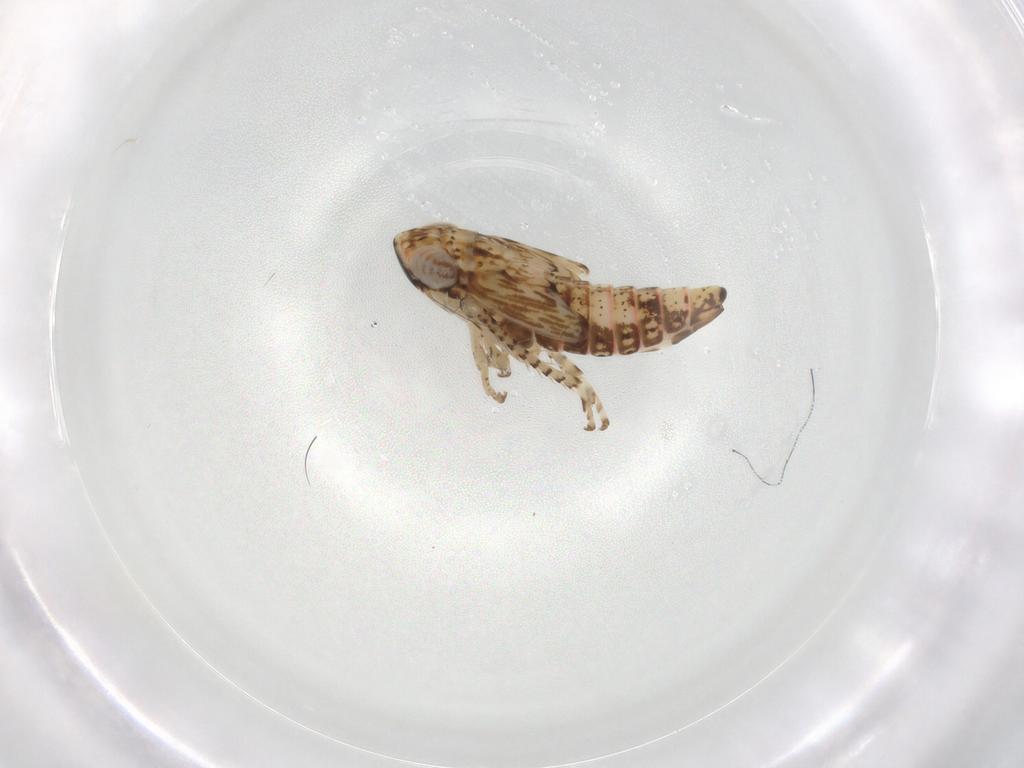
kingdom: Animalia
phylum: Arthropoda
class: Insecta
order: Hemiptera
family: Cicadellidae
